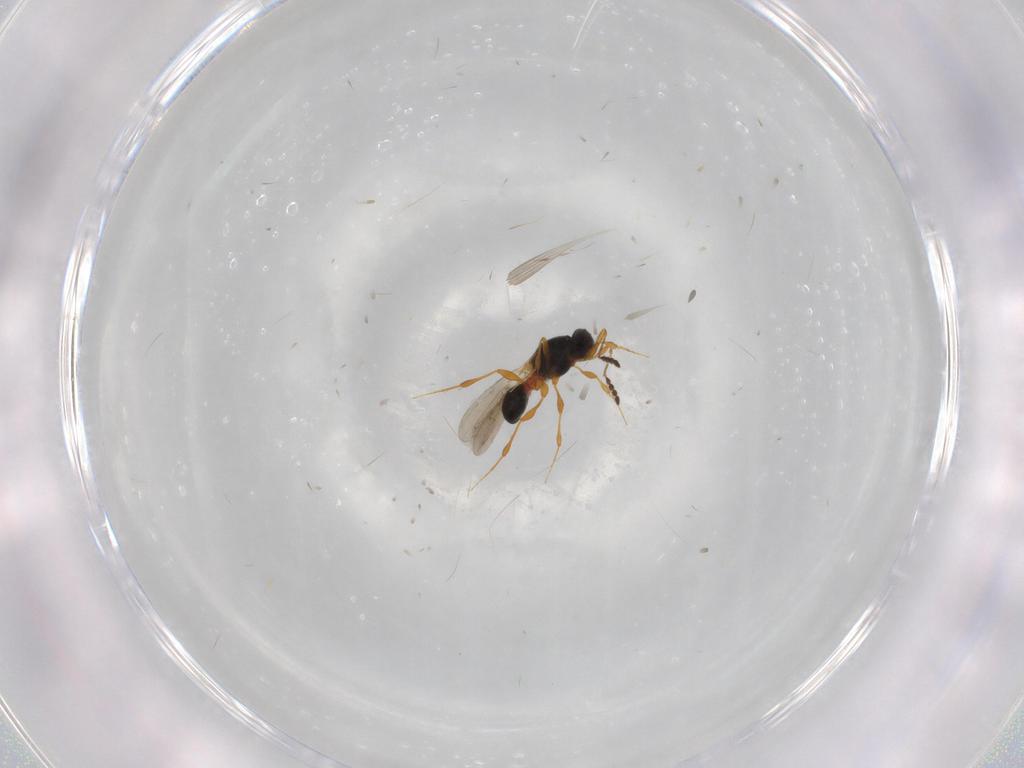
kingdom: Animalia
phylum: Arthropoda
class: Insecta
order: Hymenoptera
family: Platygastridae
